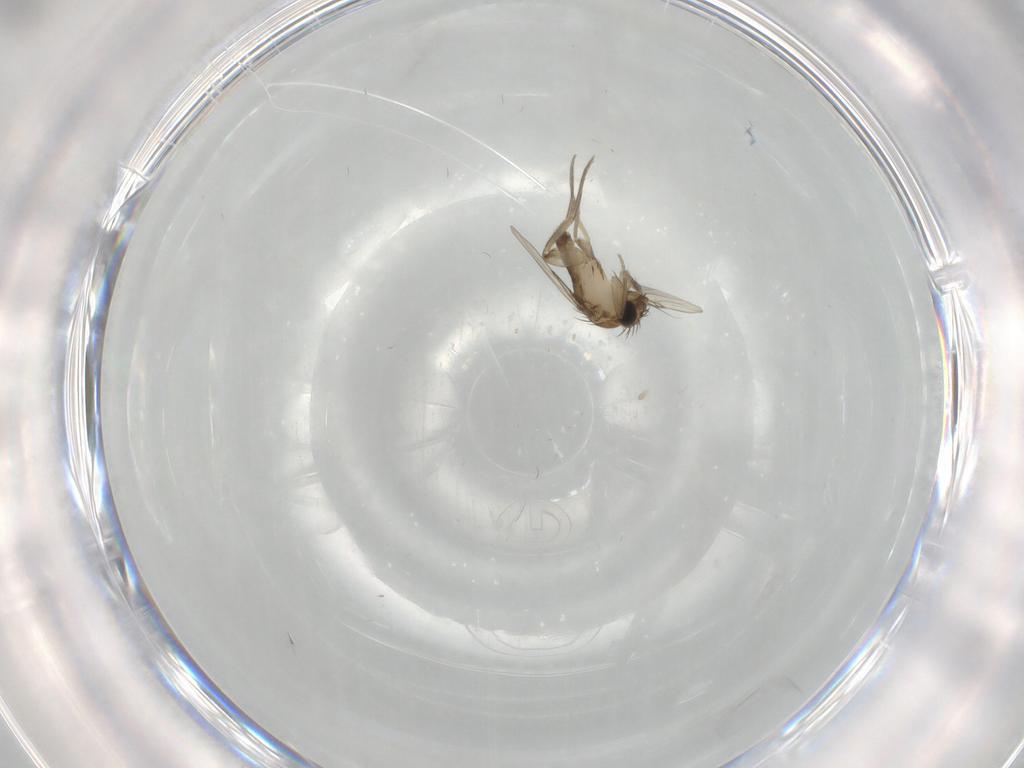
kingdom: Animalia
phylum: Arthropoda
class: Insecta
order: Diptera
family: Phoridae
